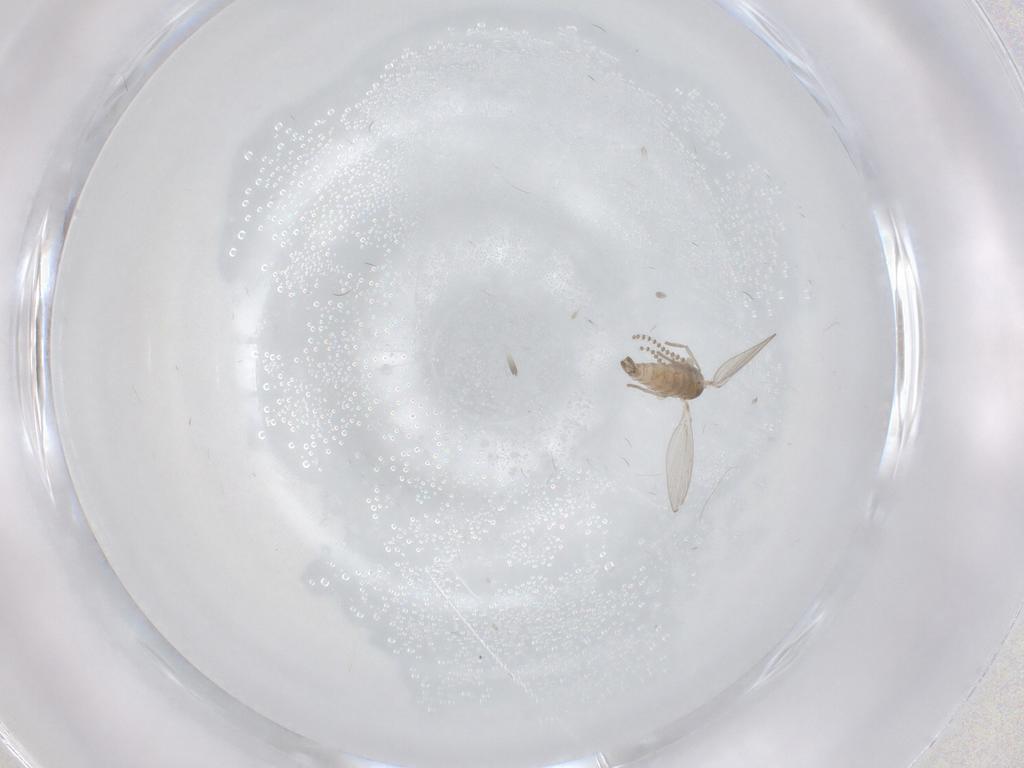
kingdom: Animalia
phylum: Arthropoda
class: Insecta
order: Diptera
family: Psychodidae
